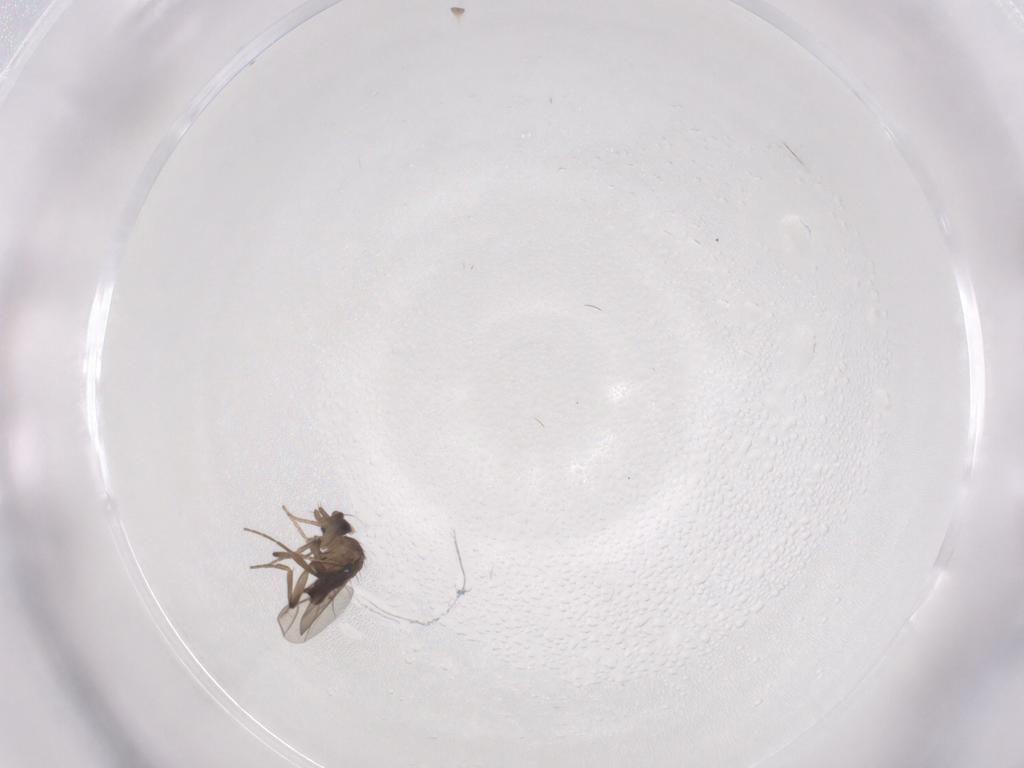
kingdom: Animalia
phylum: Arthropoda
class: Insecta
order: Diptera
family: Phoridae
